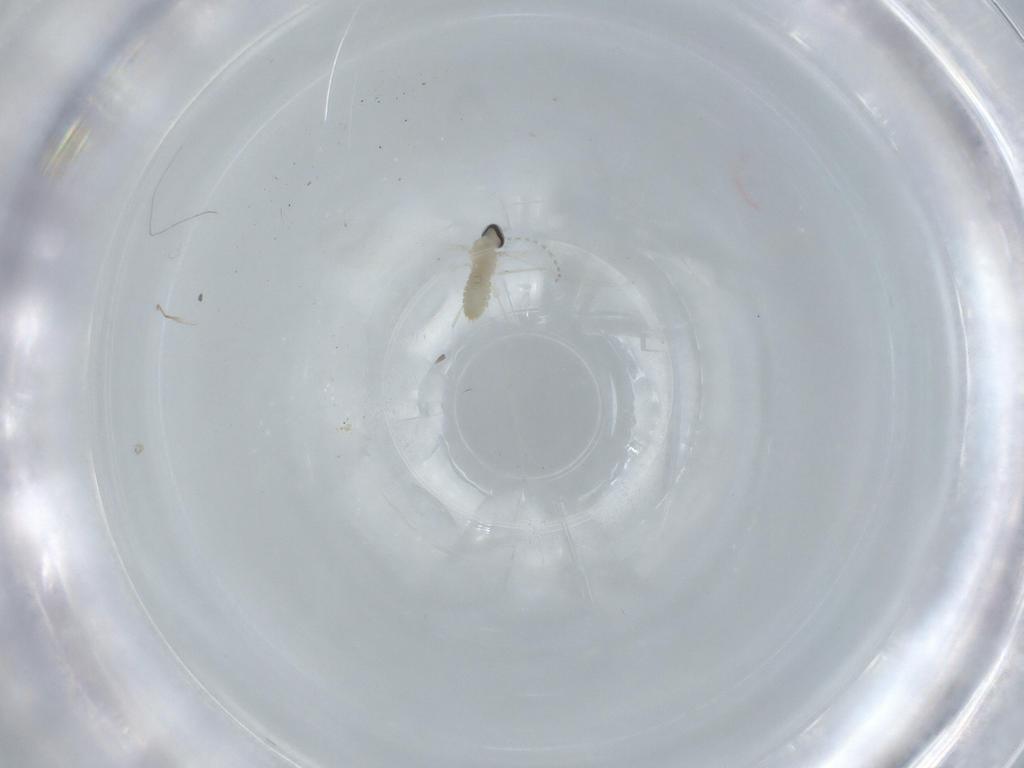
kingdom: Animalia
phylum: Arthropoda
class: Insecta
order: Diptera
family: Cecidomyiidae
